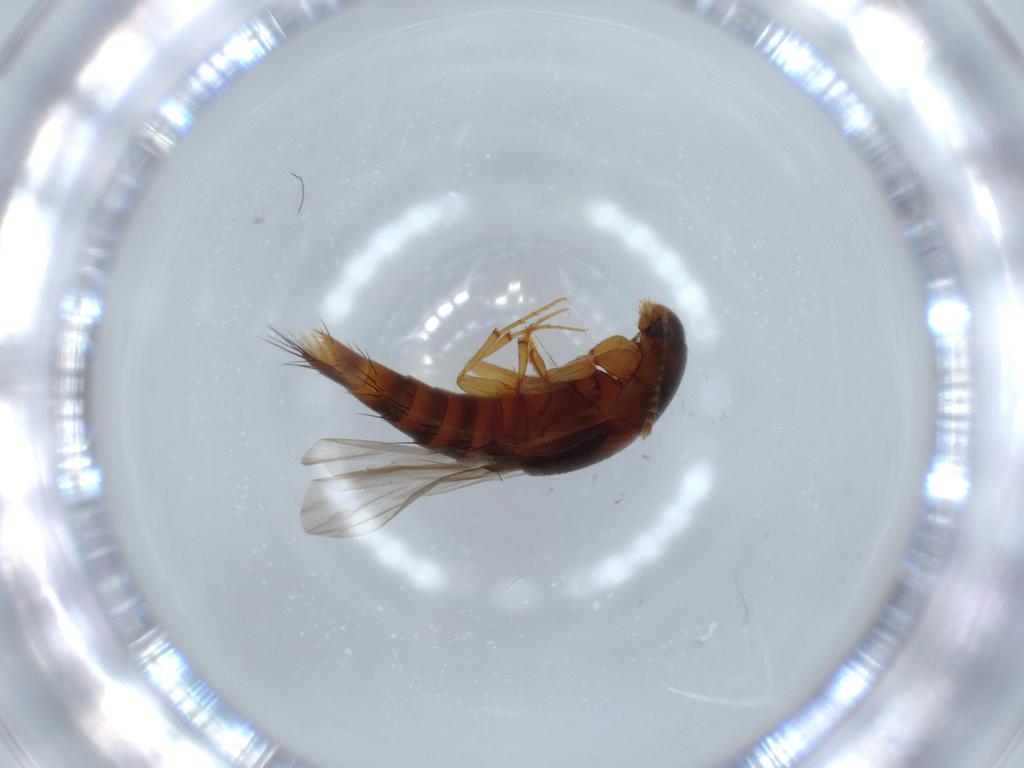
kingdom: Animalia
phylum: Arthropoda
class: Insecta
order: Coleoptera
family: Staphylinidae
